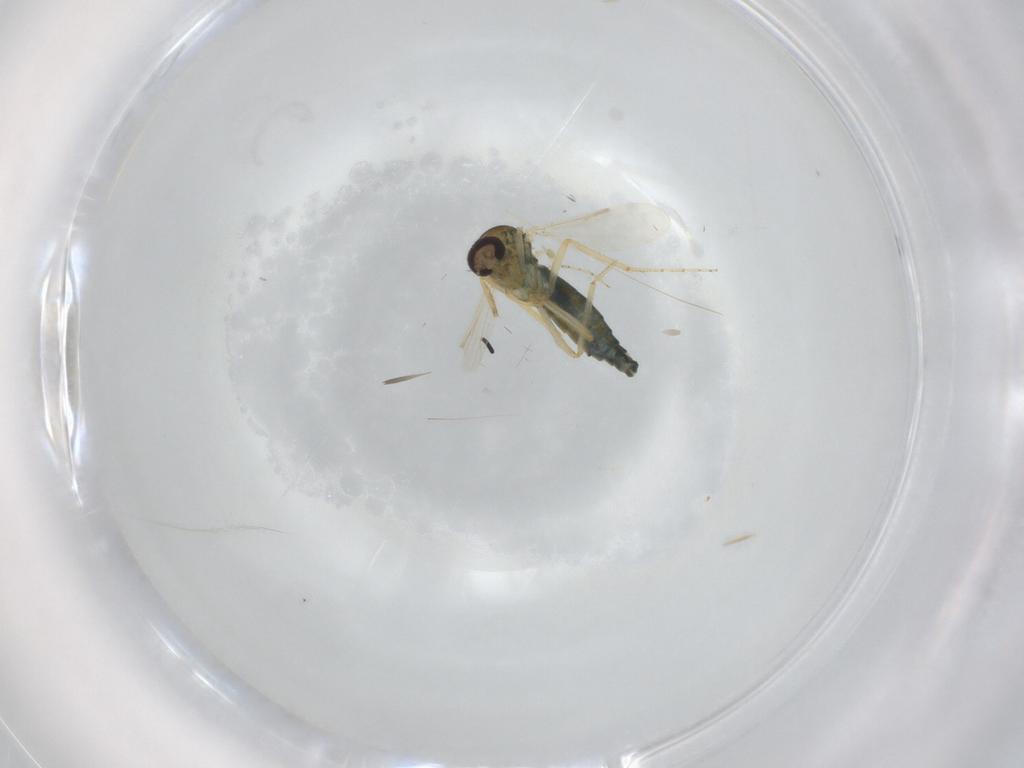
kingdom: Animalia
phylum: Arthropoda
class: Insecta
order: Diptera
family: Ceratopogonidae
